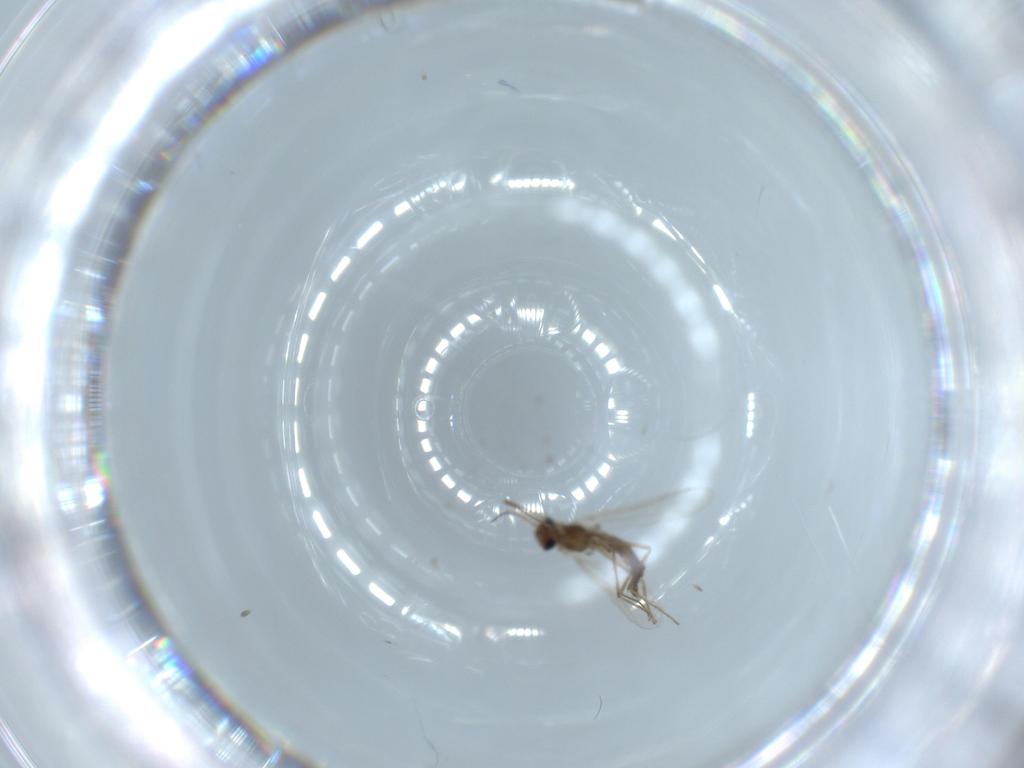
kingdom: Animalia
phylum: Arthropoda
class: Insecta
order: Diptera
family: Chironomidae
